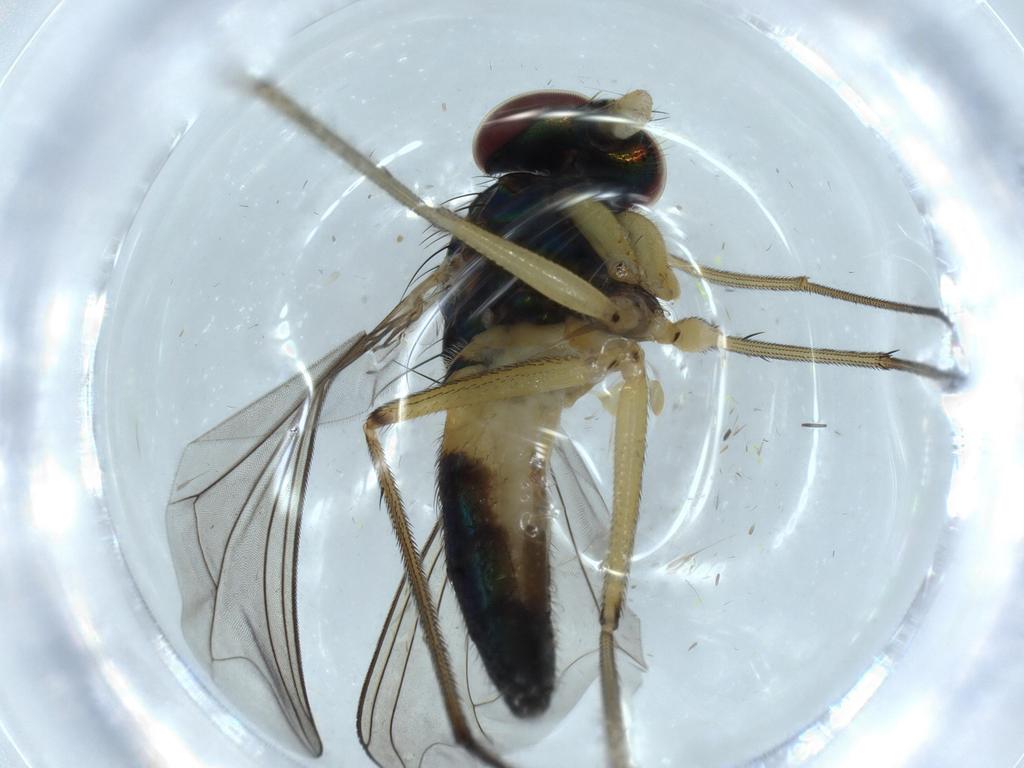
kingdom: Animalia
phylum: Arthropoda
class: Insecta
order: Diptera
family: Dolichopodidae
